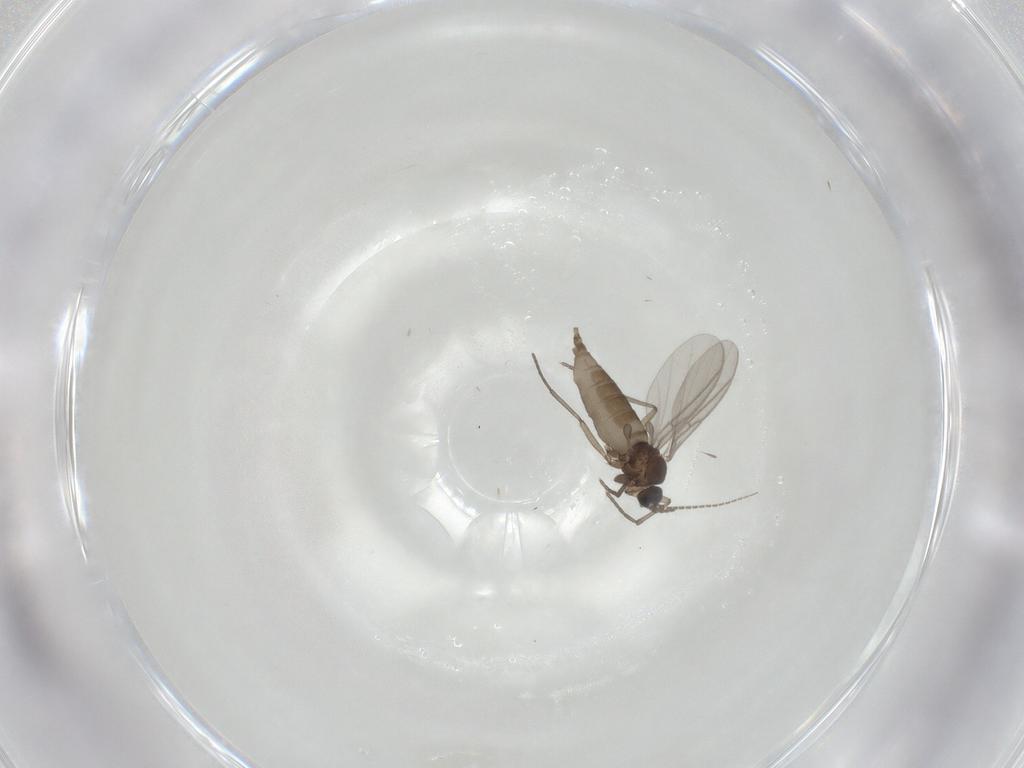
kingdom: Animalia
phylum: Arthropoda
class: Insecta
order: Diptera
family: Sciaridae
